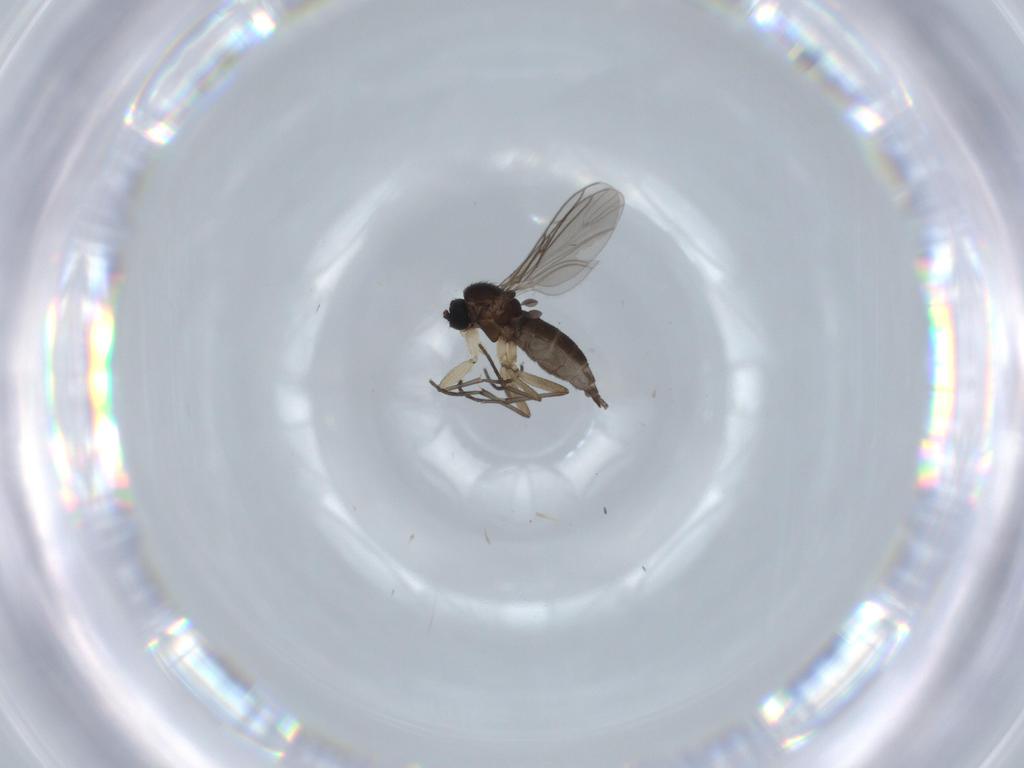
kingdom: Animalia
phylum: Arthropoda
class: Insecta
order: Diptera
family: Sciaridae
